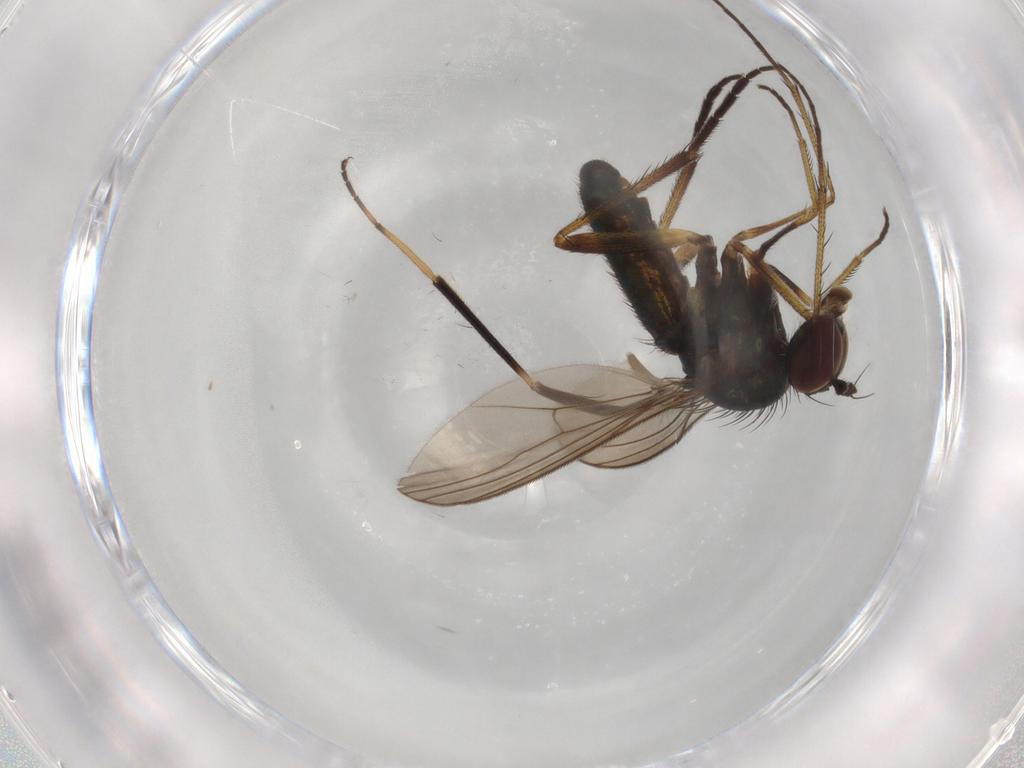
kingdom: Animalia
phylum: Arthropoda
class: Insecta
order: Diptera
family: Dolichopodidae
